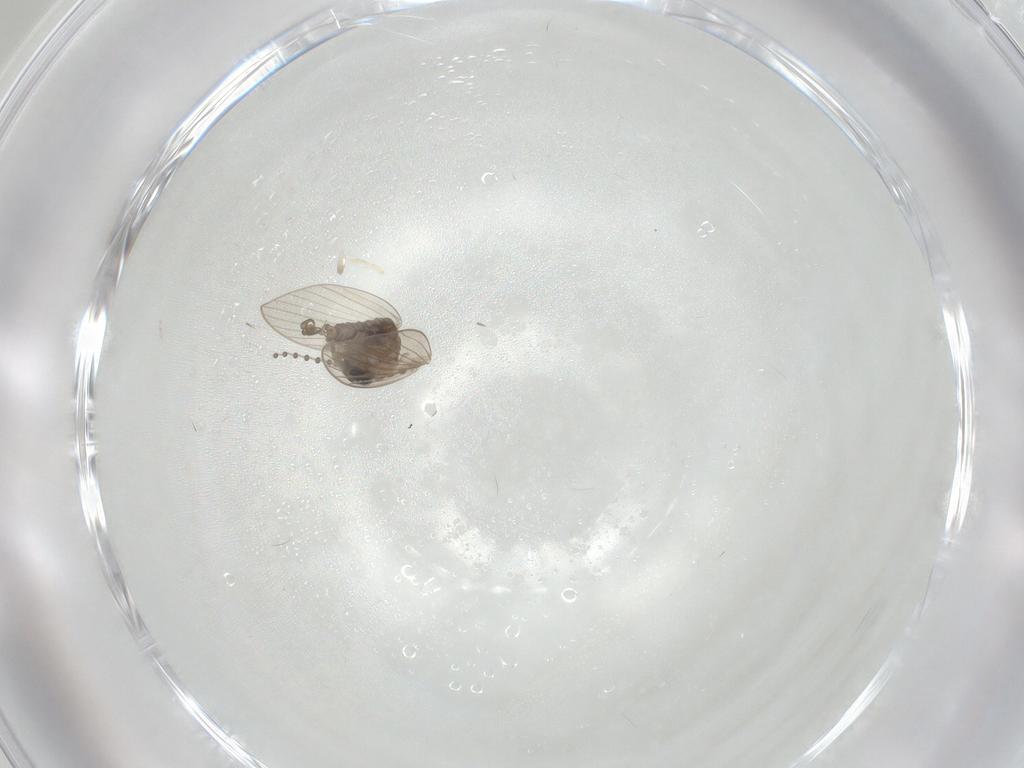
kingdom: Animalia
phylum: Arthropoda
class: Insecta
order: Diptera
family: Psychodidae
